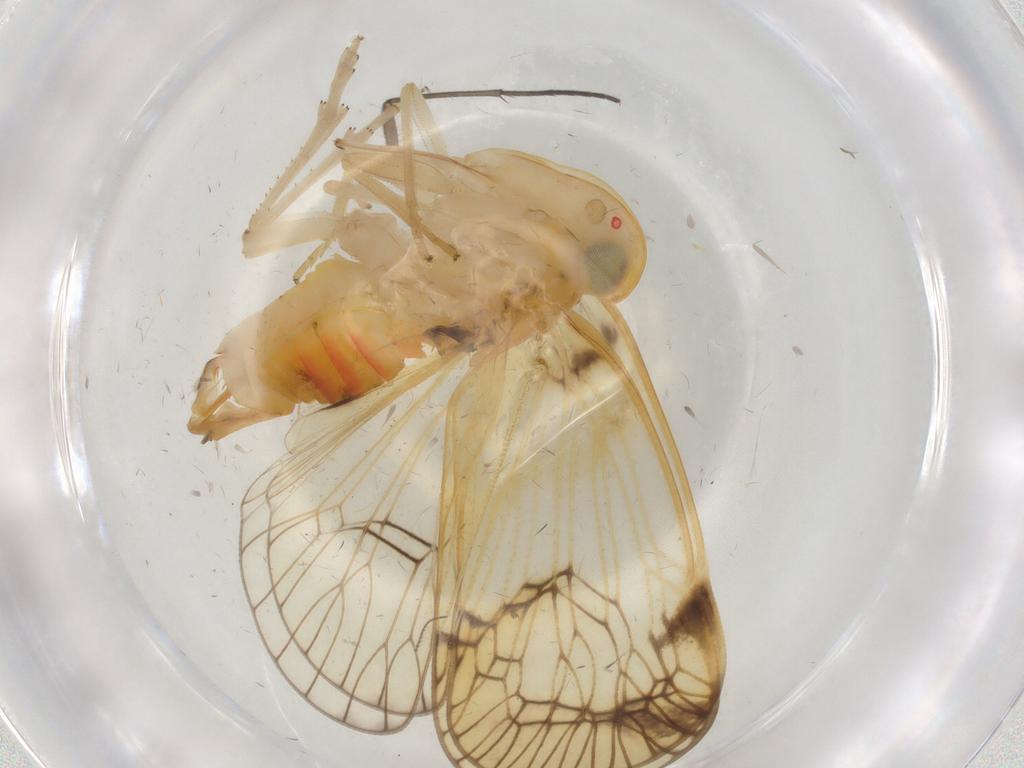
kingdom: Animalia
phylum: Arthropoda
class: Insecta
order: Hemiptera
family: Cixiidae
